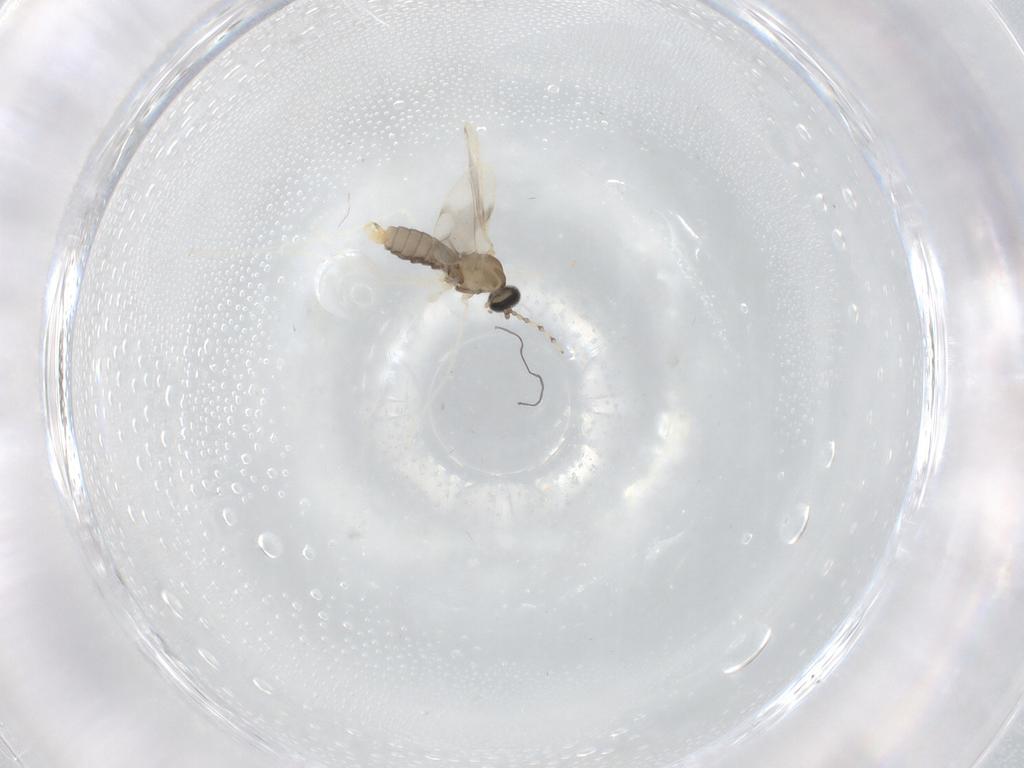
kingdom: Animalia
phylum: Arthropoda
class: Insecta
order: Diptera
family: Cecidomyiidae
